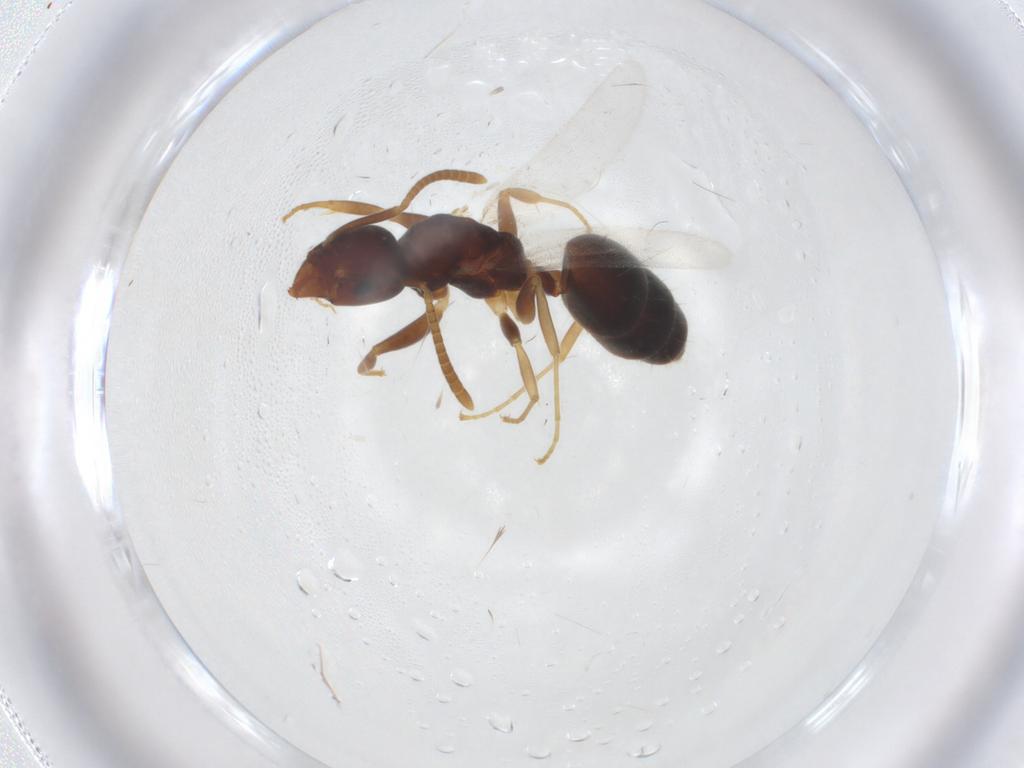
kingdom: Animalia
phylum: Arthropoda
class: Insecta
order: Hymenoptera
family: Formicidae
